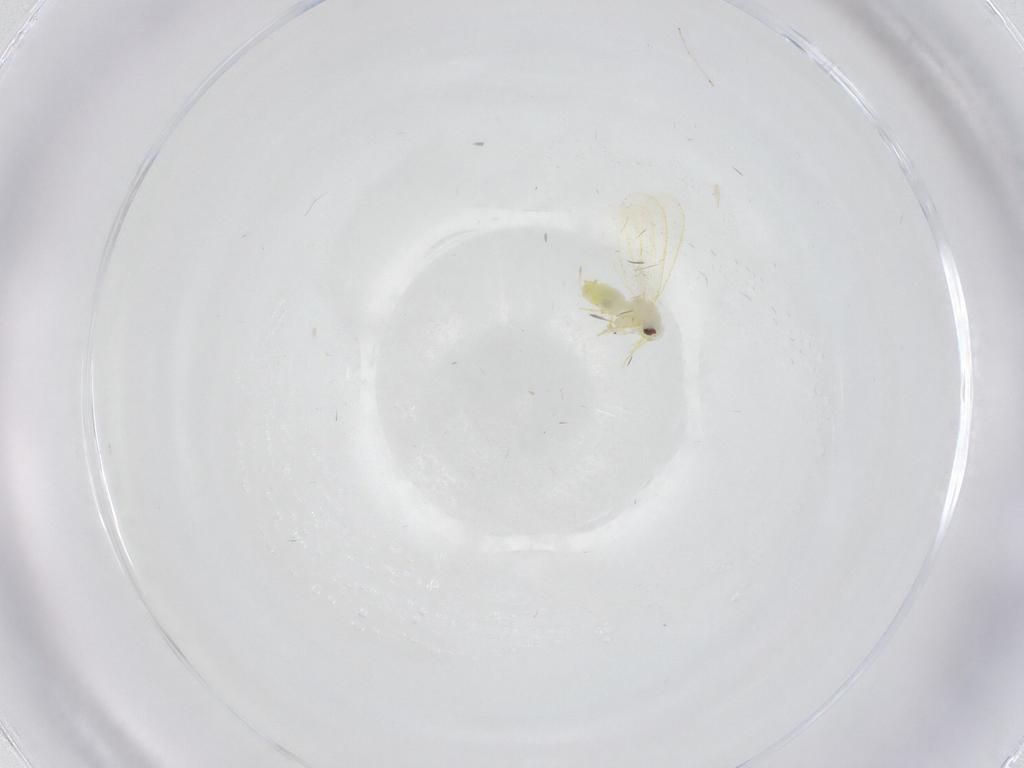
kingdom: Animalia
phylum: Arthropoda
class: Insecta
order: Hemiptera
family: Aleyrodidae
